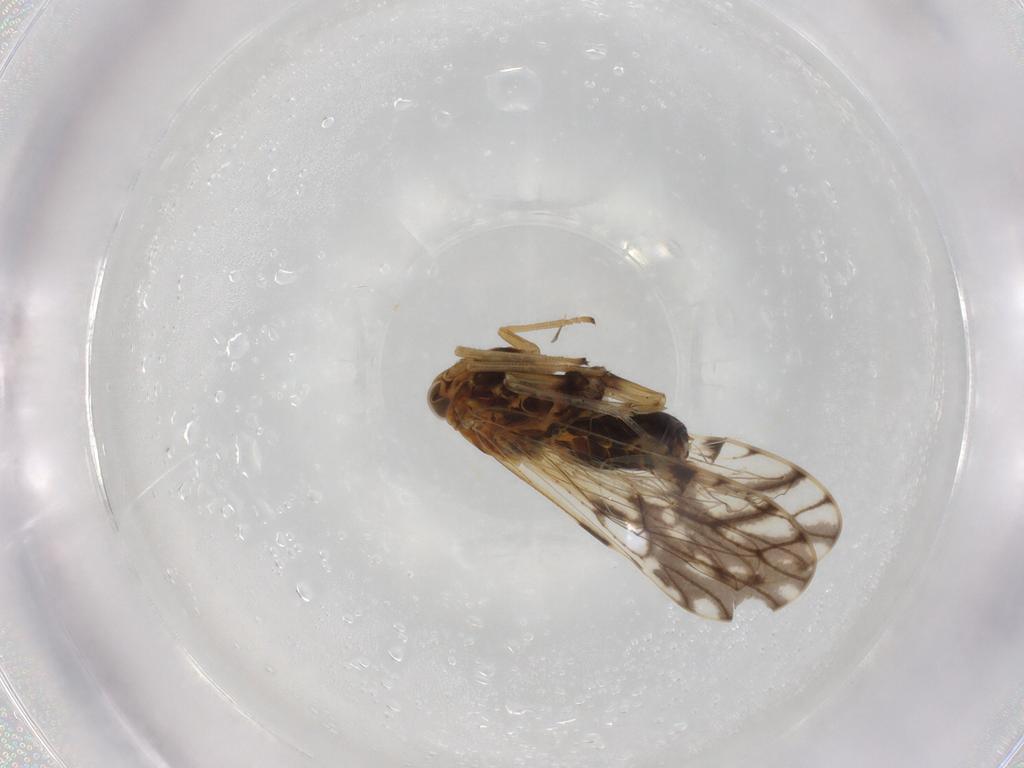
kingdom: Animalia
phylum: Arthropoda
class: Insecta
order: Hemiptera
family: Delphacidae
